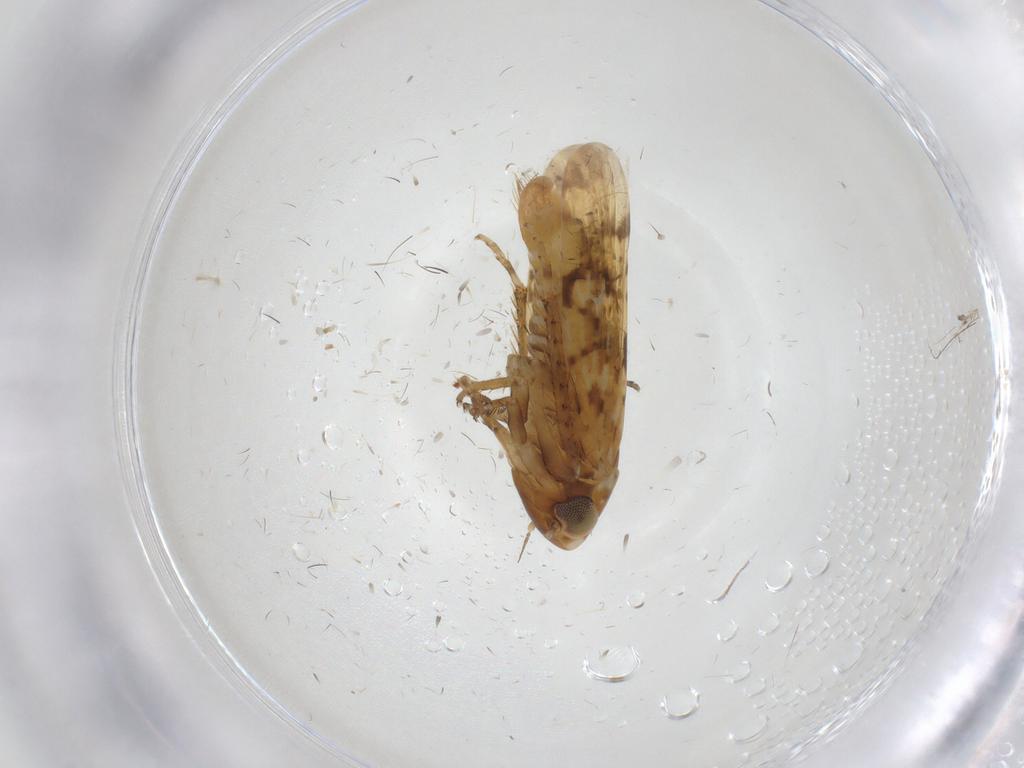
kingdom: Animalia
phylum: Arthropoda
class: Insecta
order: Hemiptera
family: Cicadellidae
